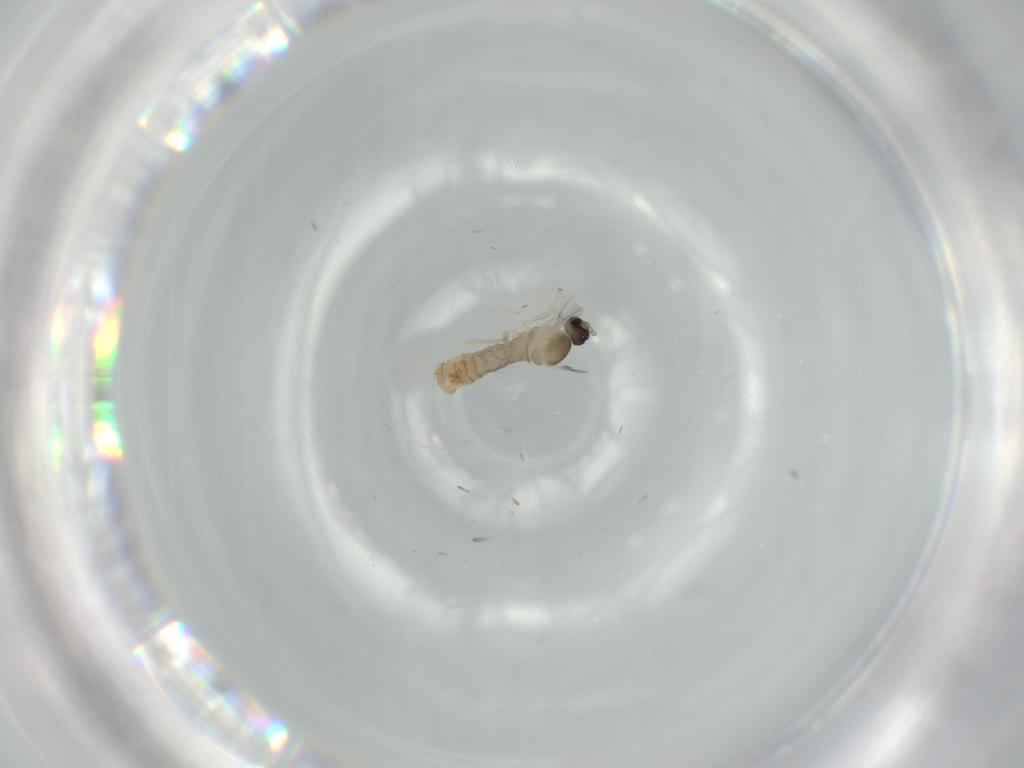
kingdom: Animalia
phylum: Arthropoda
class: Insecta
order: Diptera
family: Cecidomyiidae
